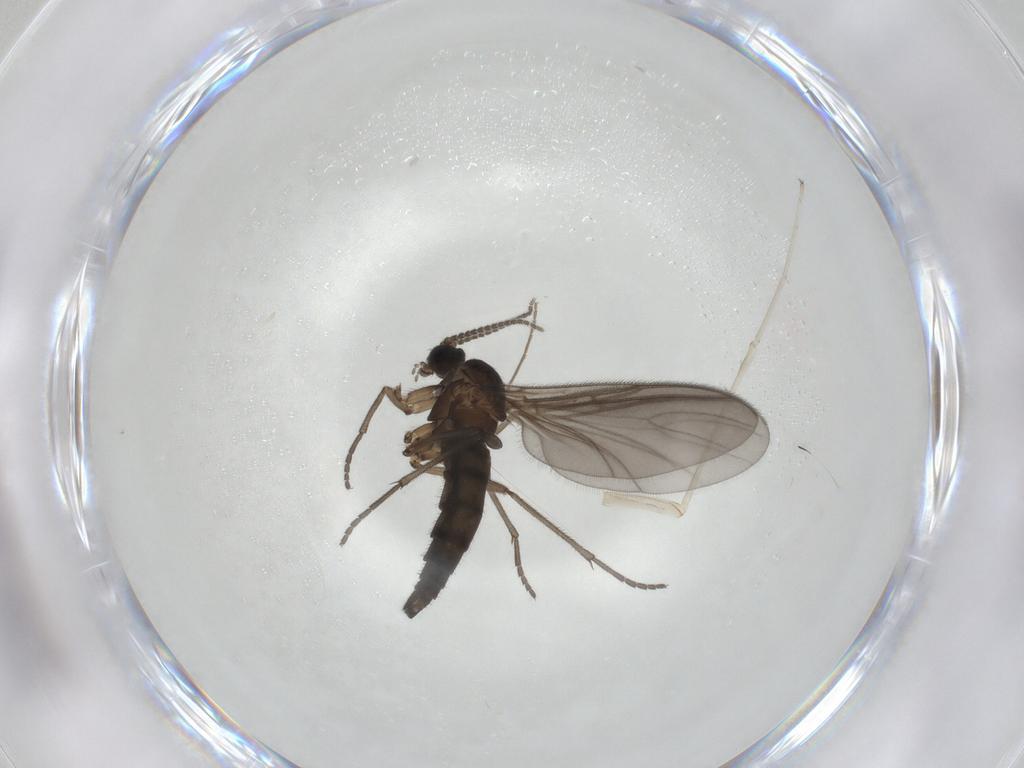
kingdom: Animalia
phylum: Arthropoda
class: Insecta
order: Diptera
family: Sciaridae
